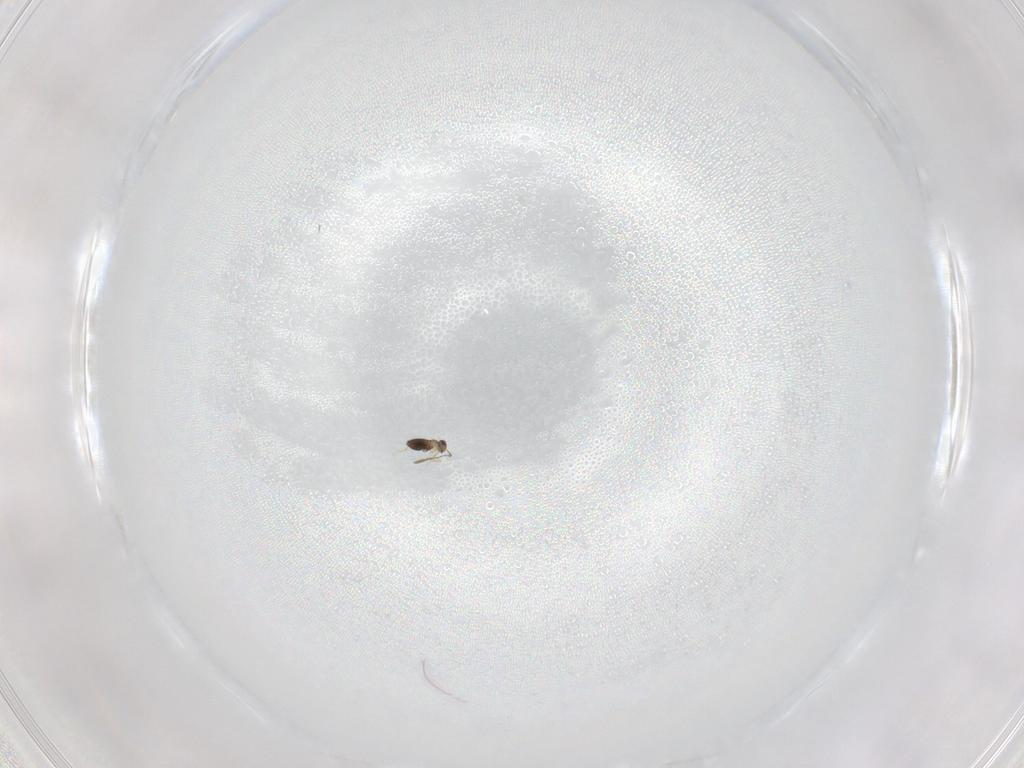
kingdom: Animalia
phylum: Arthropoda
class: Insecta
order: Hymenoptera
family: Mymaridae
